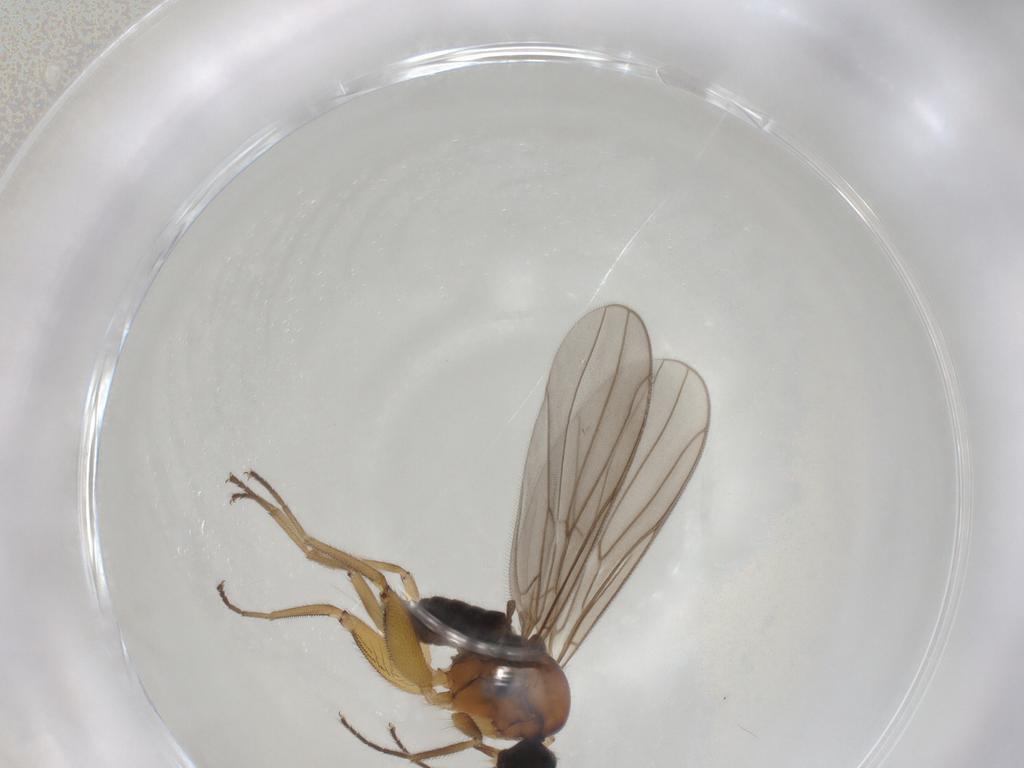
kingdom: Animalia
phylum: Arthropoda
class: Insecta
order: Diptera
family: Hybotidae
